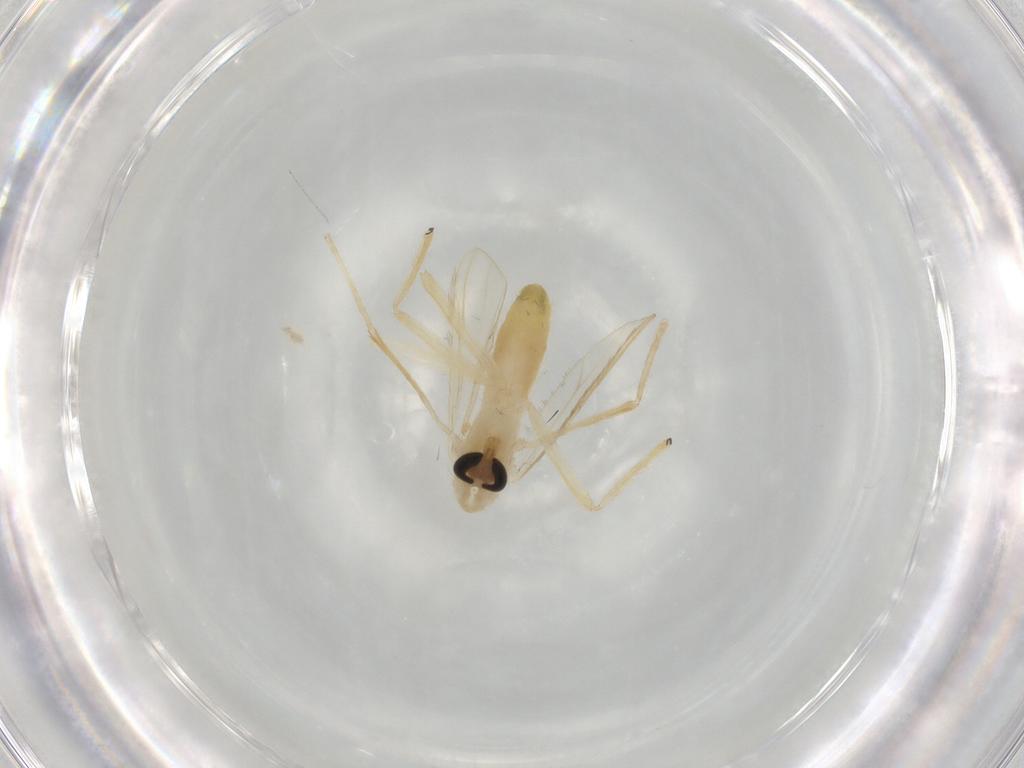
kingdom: Animalia
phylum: Arthropoda
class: Insecta
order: Diptera
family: Chironomidae
